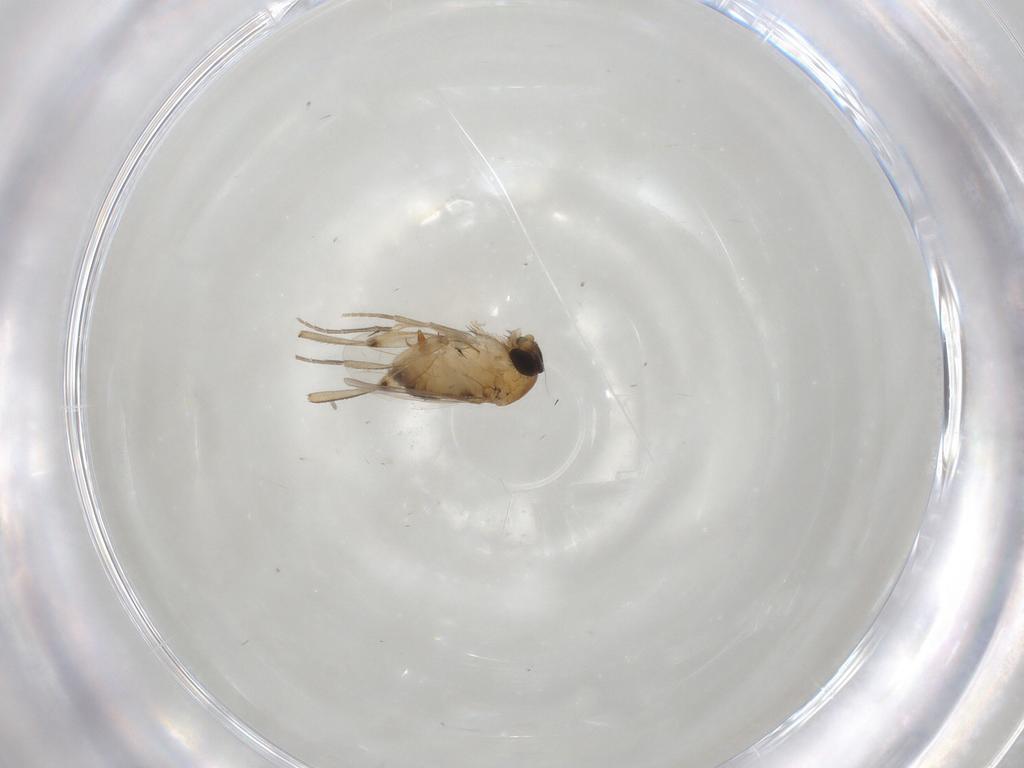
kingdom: Animalia
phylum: Arthropoda
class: Insecta
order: Diptera
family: Phoridae
